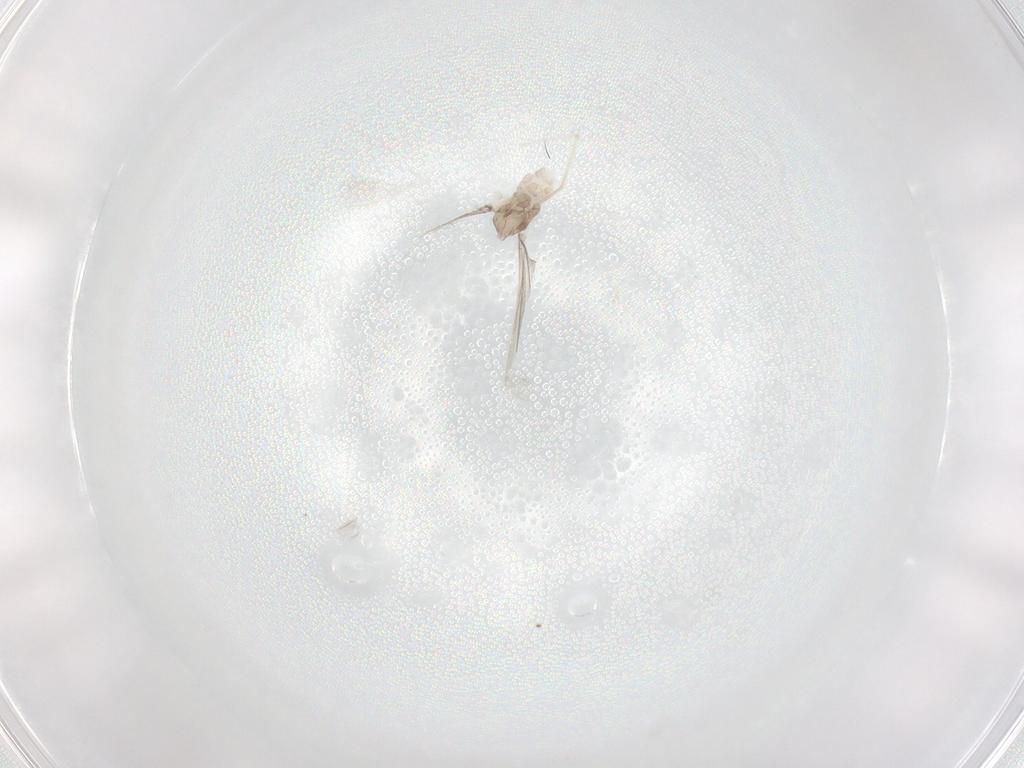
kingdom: Animalia
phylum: Arthropoda
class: Insecta
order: Diptera
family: Cecidomyiidae
